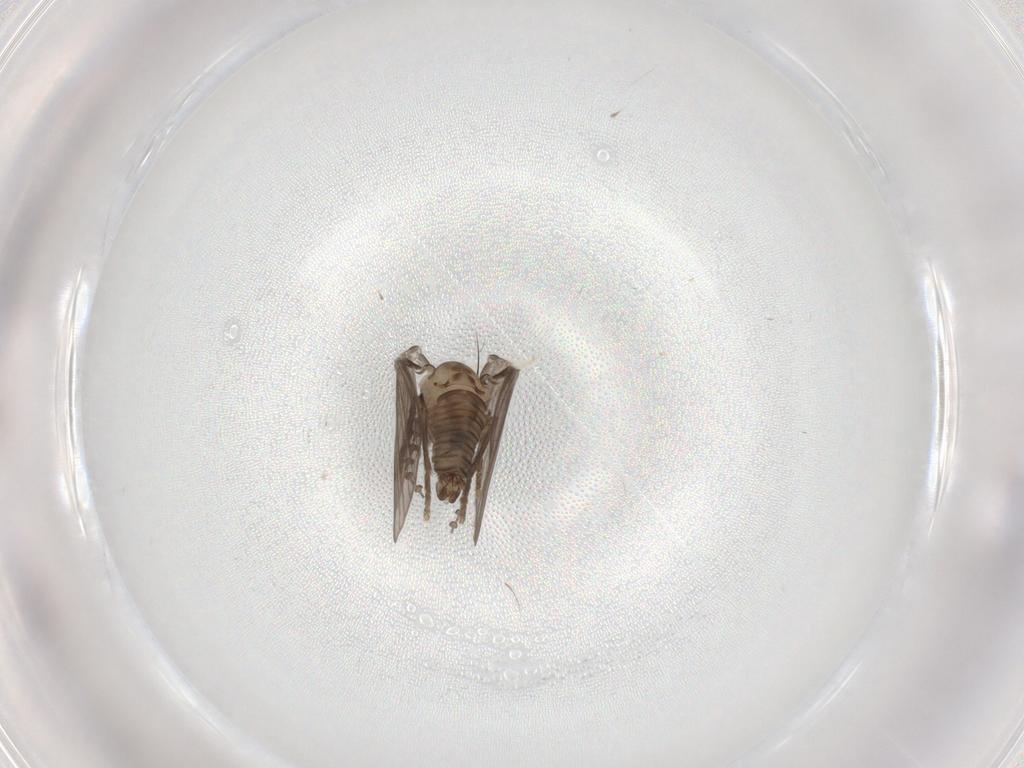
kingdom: Animalia
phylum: Arthropoda
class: Insecta
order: Diptera
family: Psychodidae
